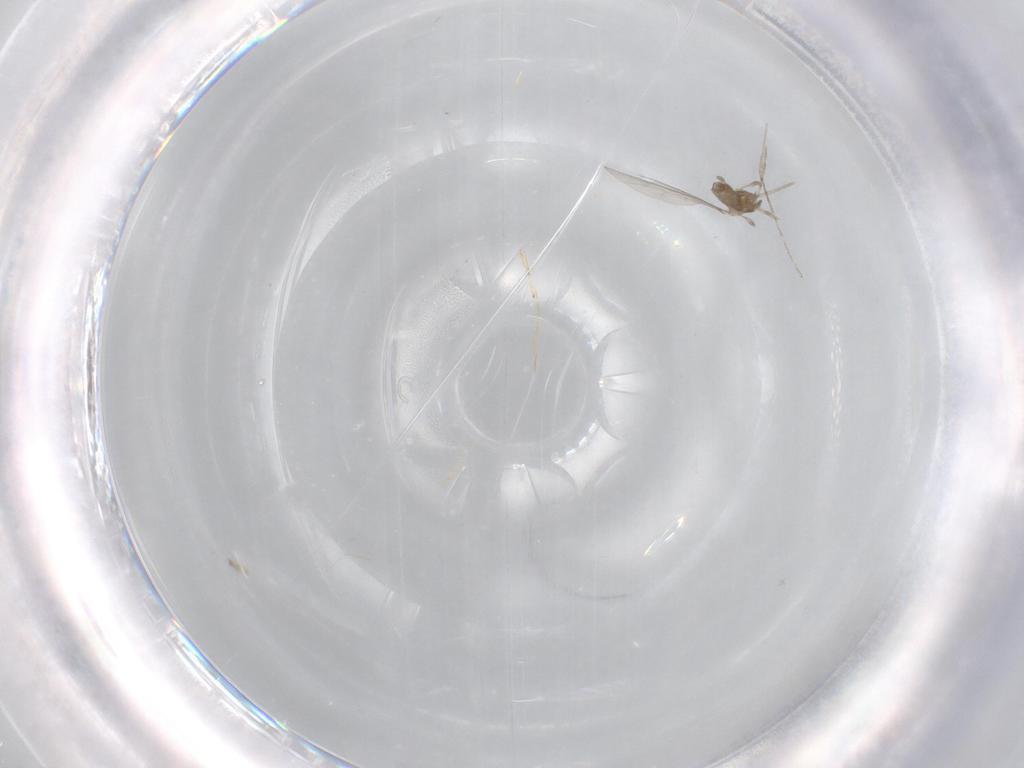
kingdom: Animalia
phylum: Arthropoda
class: Insecta
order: Diptera
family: Chironomidae
